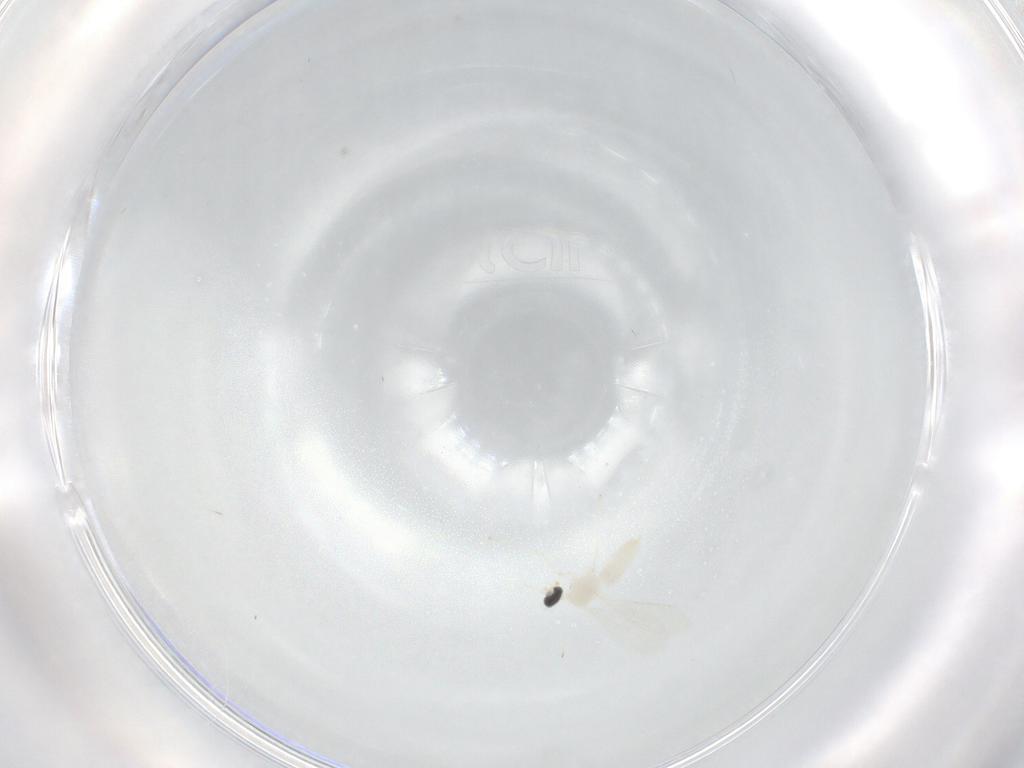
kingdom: Animalia
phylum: Arthropoda
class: Insecta
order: Diptera
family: Cecidomyiidae
